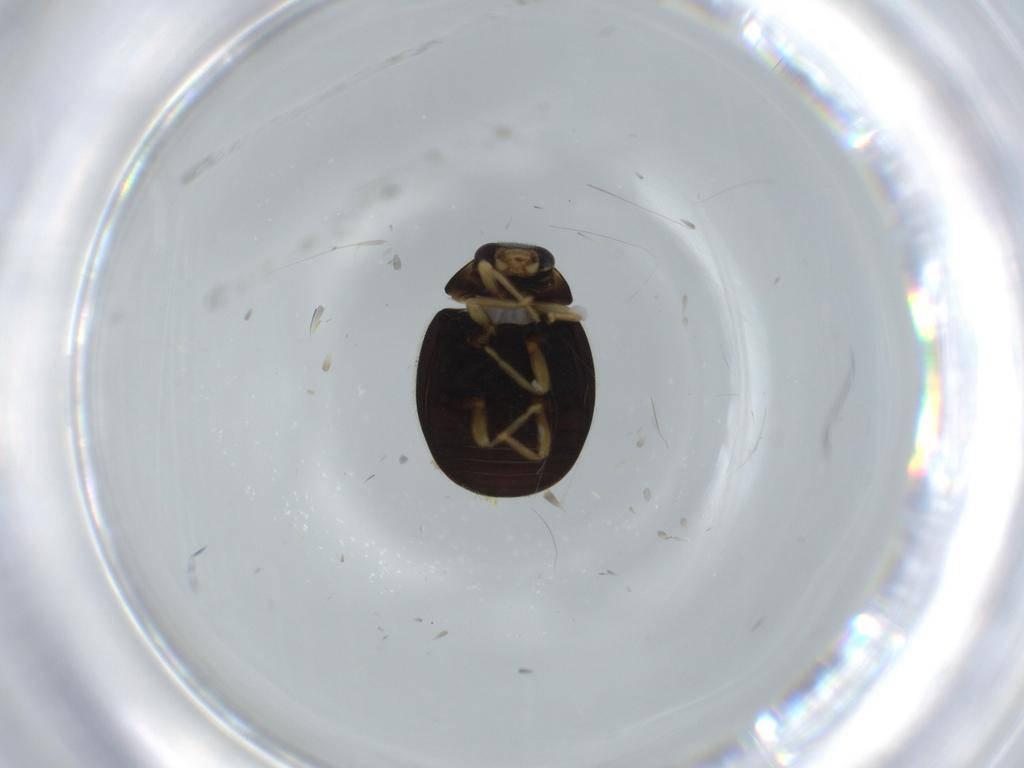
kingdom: Animalia
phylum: Arthropoda
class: Insecta
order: Coleoptera
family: Coccinellidae
